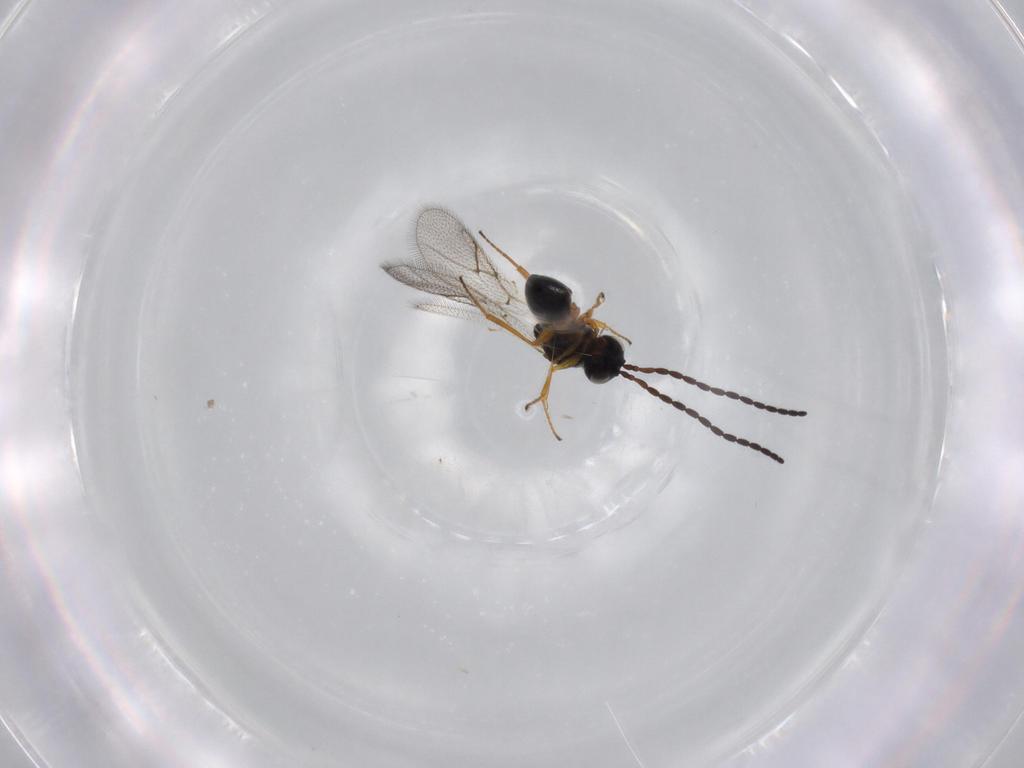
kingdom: Animalia
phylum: Arthropoda
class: Insecta
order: Hymenoptera
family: Figitidae
